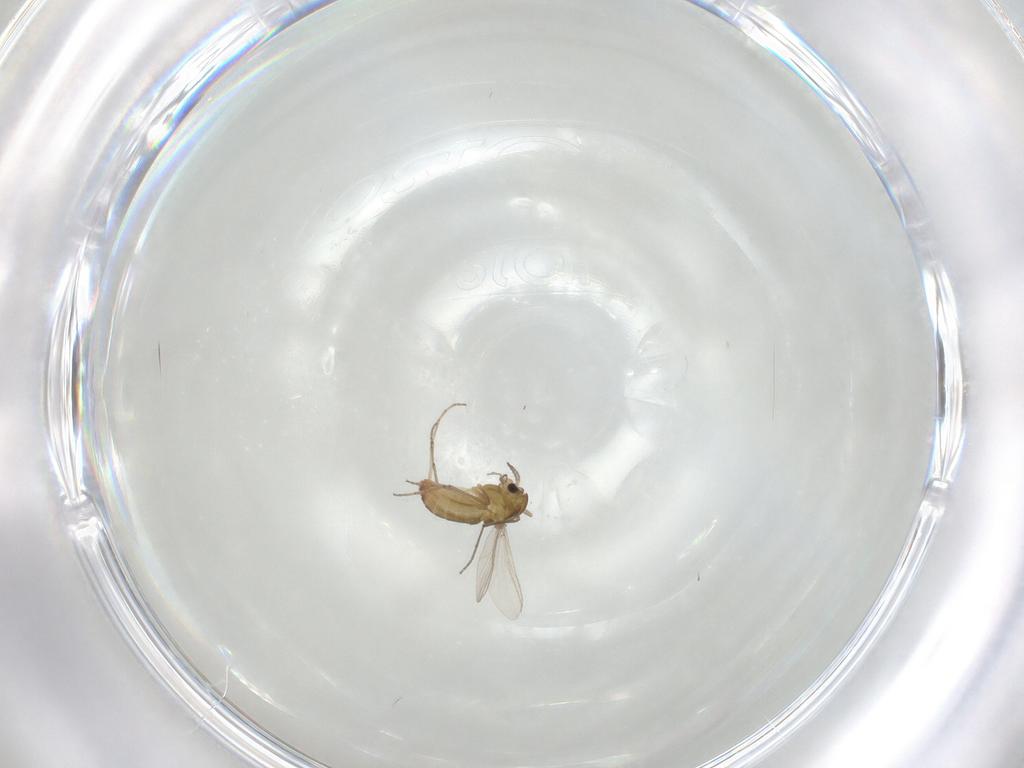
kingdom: Animalia
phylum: Arthropoda
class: Insecta
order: Diptera
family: Chironomidae
